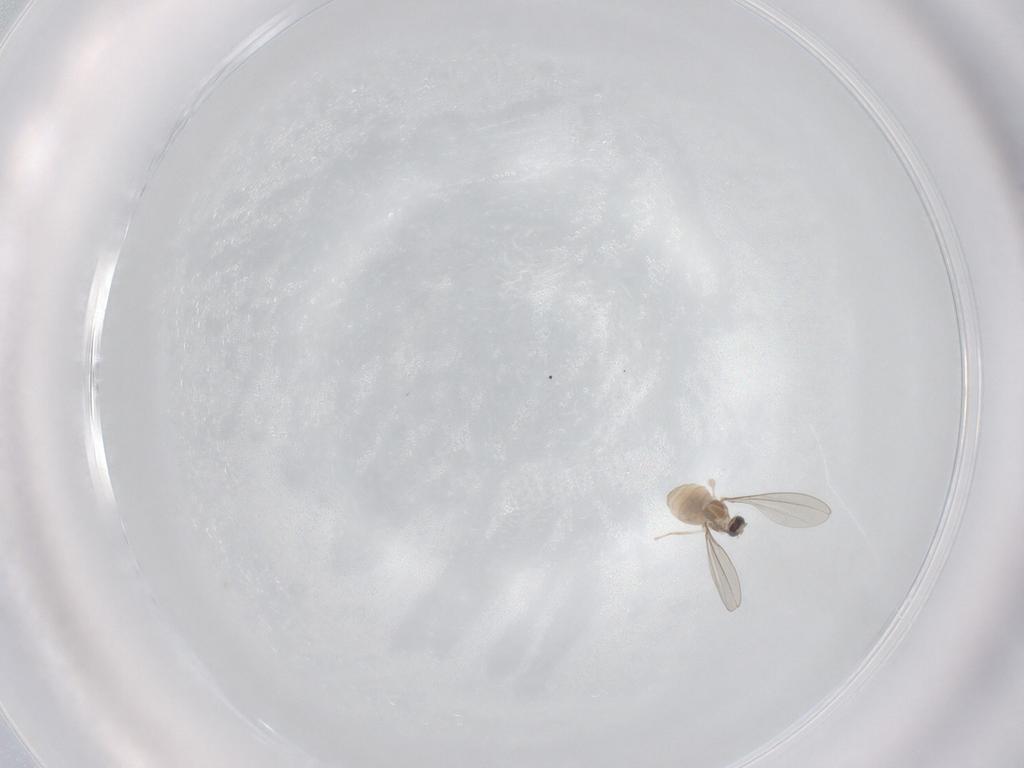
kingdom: Animalia
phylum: Arthropoda
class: Insecta
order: Diptera
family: Cecidomyiidae
